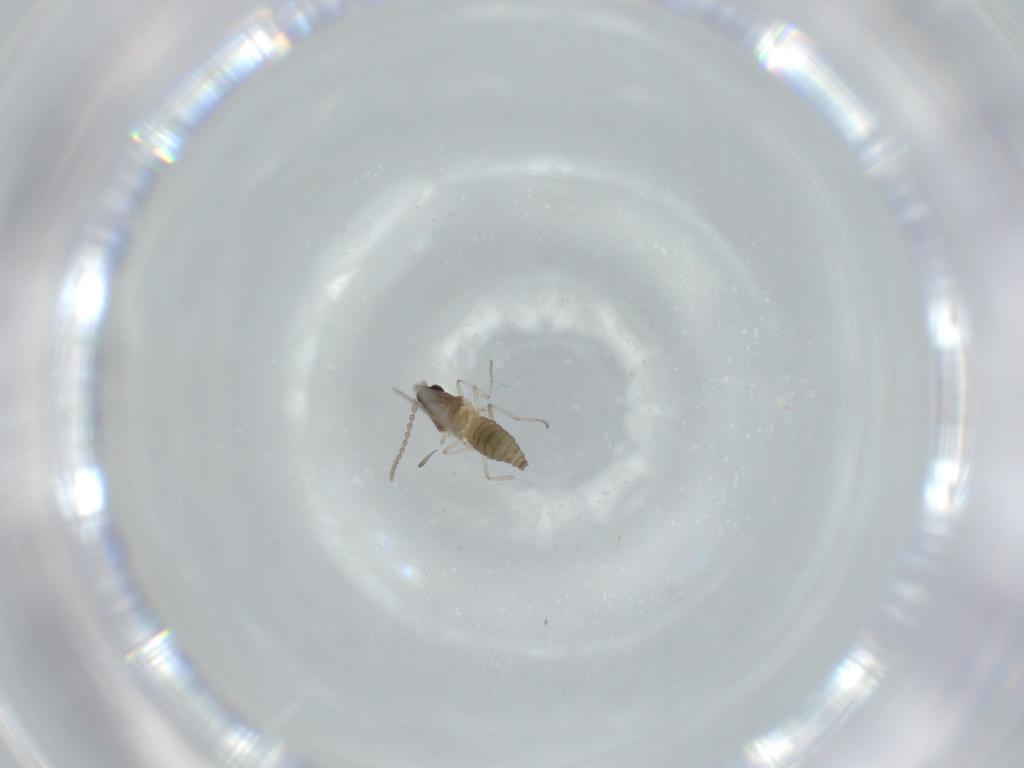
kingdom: Animalia
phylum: Arthropoda
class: Insecta
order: Diptera
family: Cecidomyiidae
